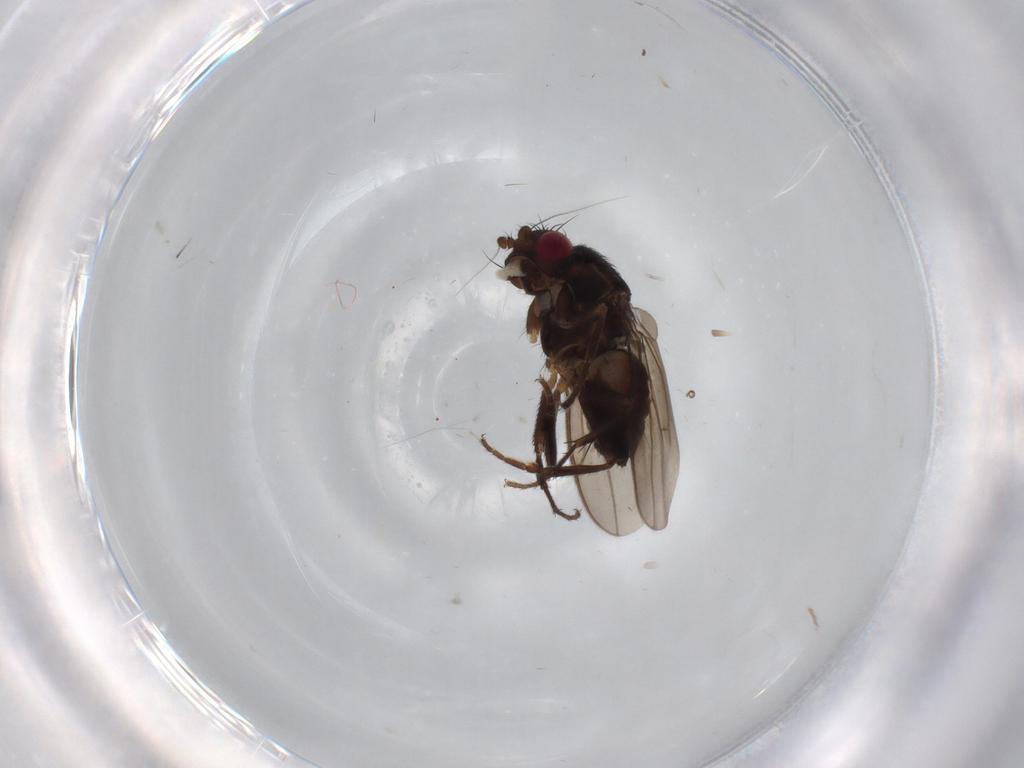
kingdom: Animalia
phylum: Arthropoda
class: Insecta
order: Diptera
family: Sphaeroceridae
